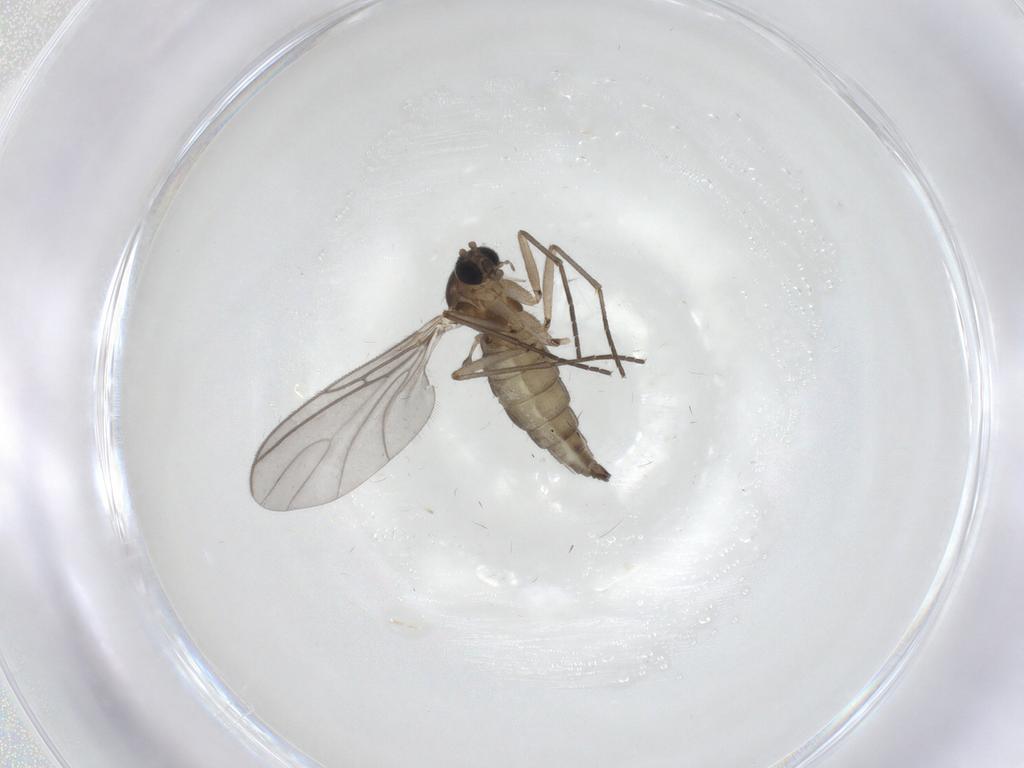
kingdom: Animalia
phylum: Arthropoda
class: Insecta
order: Diptera
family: Phoridae
